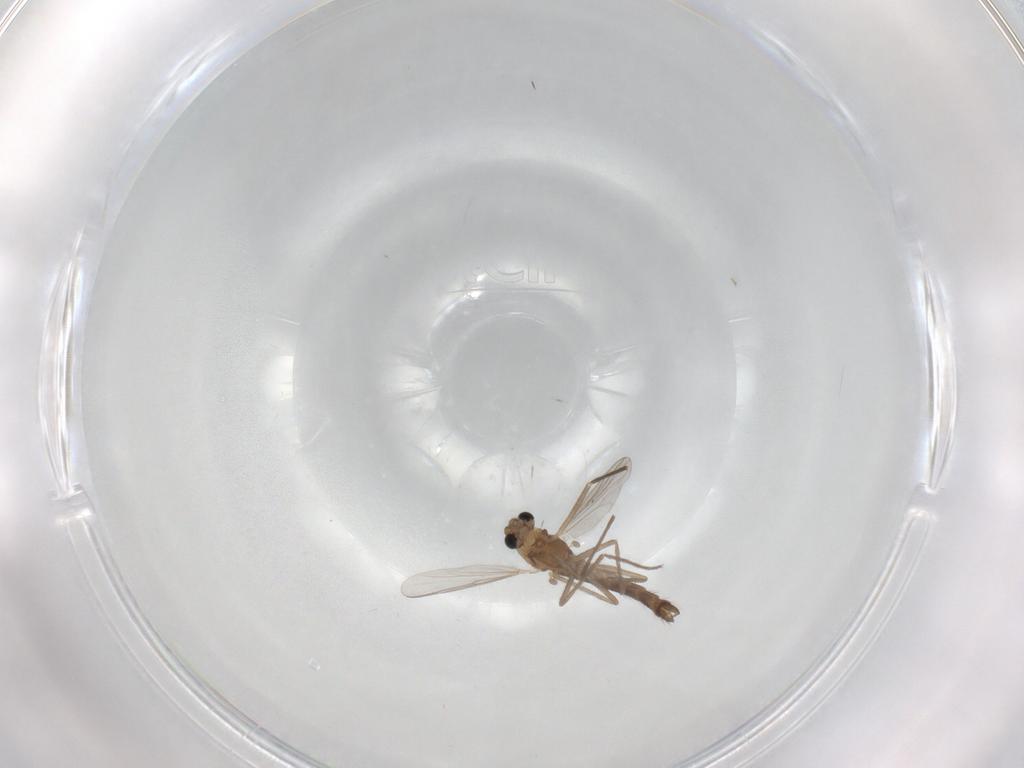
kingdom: Animalia
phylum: Arthropoda
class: Insecta
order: Diptera
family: Chironomidae
